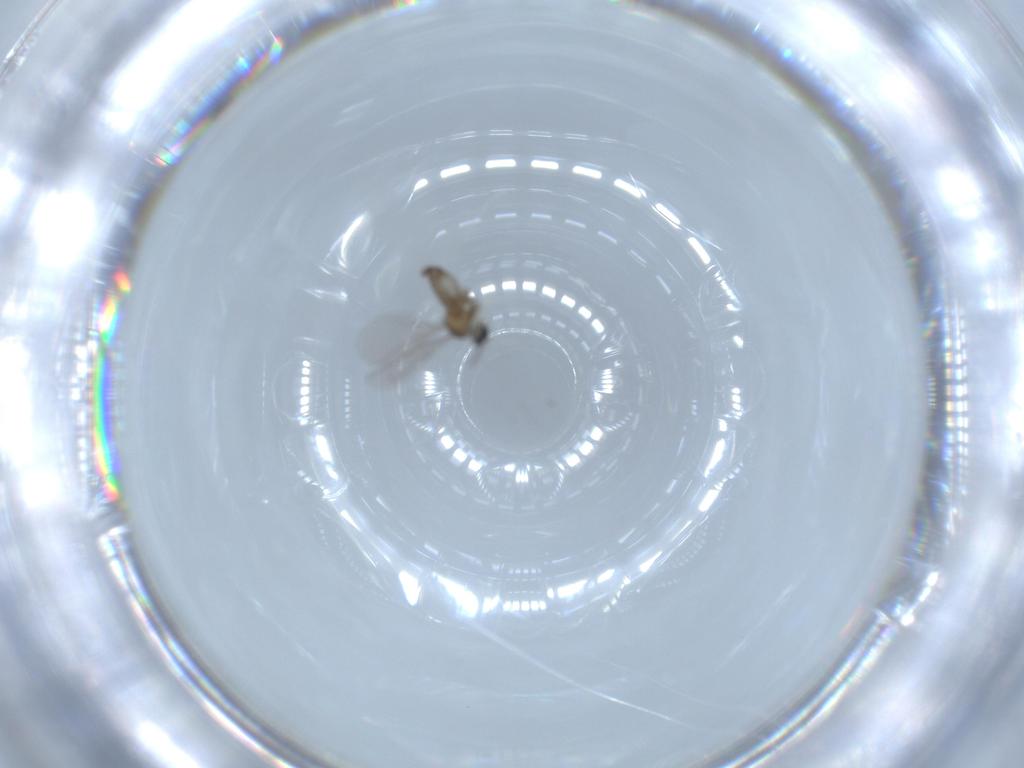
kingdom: Animalia
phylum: Arthropoda
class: Insecta
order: Diptera
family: Cecidomyiidae
